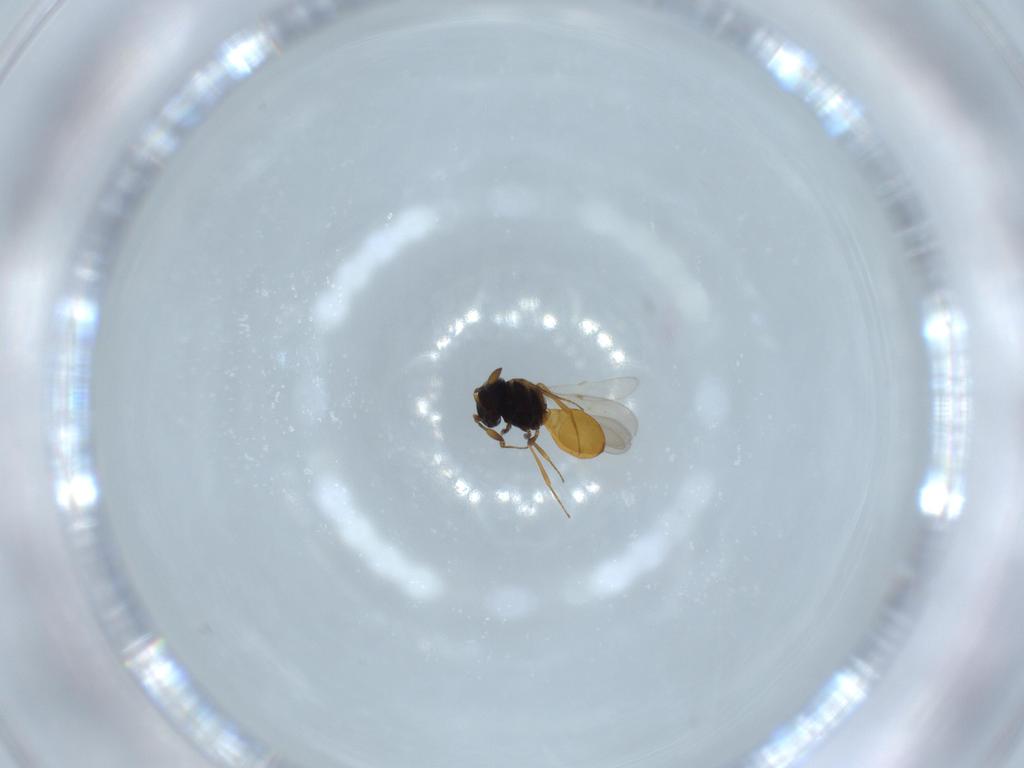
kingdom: Animalia
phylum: Arthropoda
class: Insecta
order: Hymenoptera
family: Scelionidae
